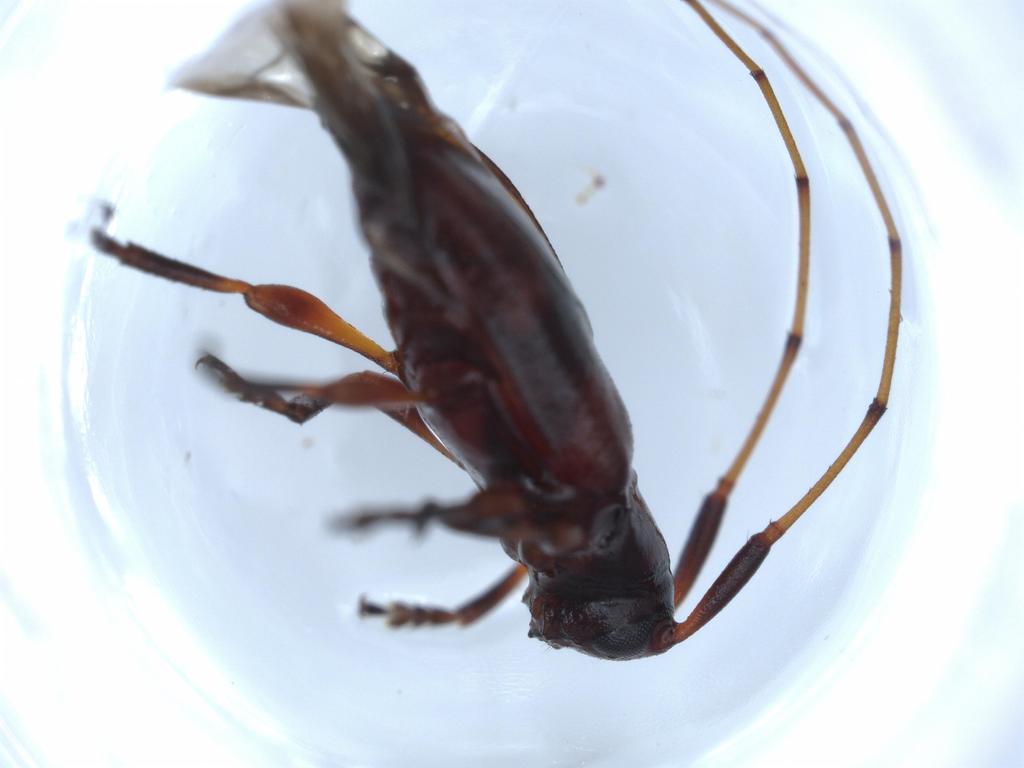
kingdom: Animalia
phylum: Arthropoda
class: Insecta
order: Coleoptera
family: Cerambycidae
